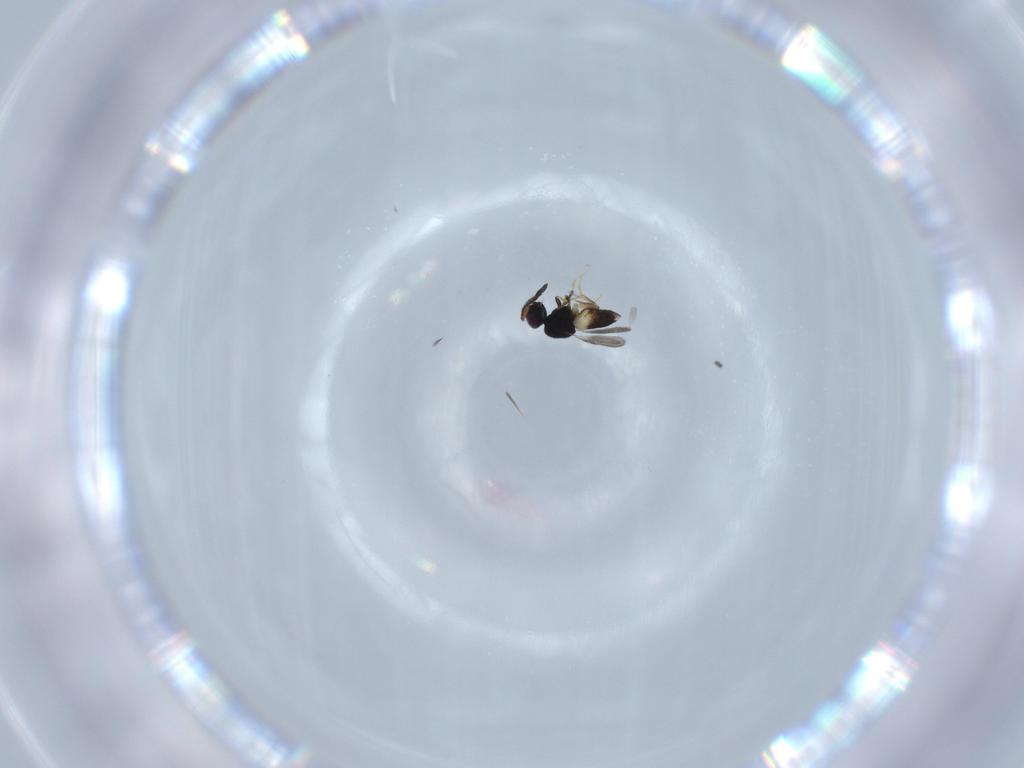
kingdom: Animalia
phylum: Arthropoda
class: Insecta
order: Hymenoptera
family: Ceraphronidae
